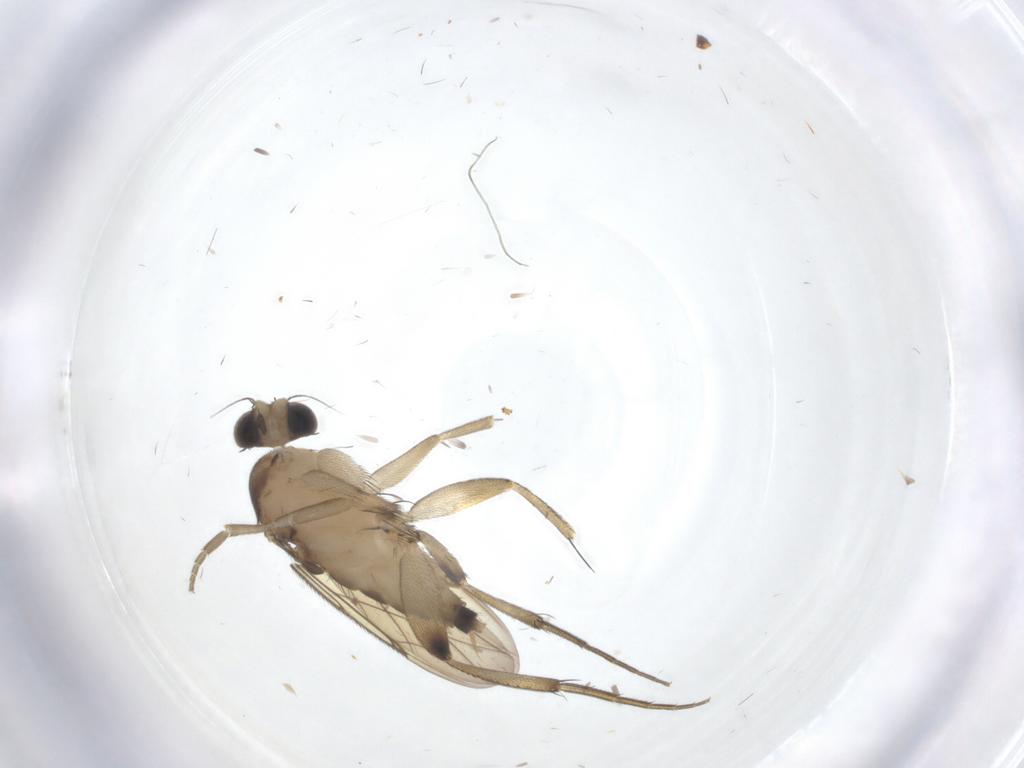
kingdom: Animalia
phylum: Arthropoda
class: Insecta
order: Diptera
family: Phoridae
